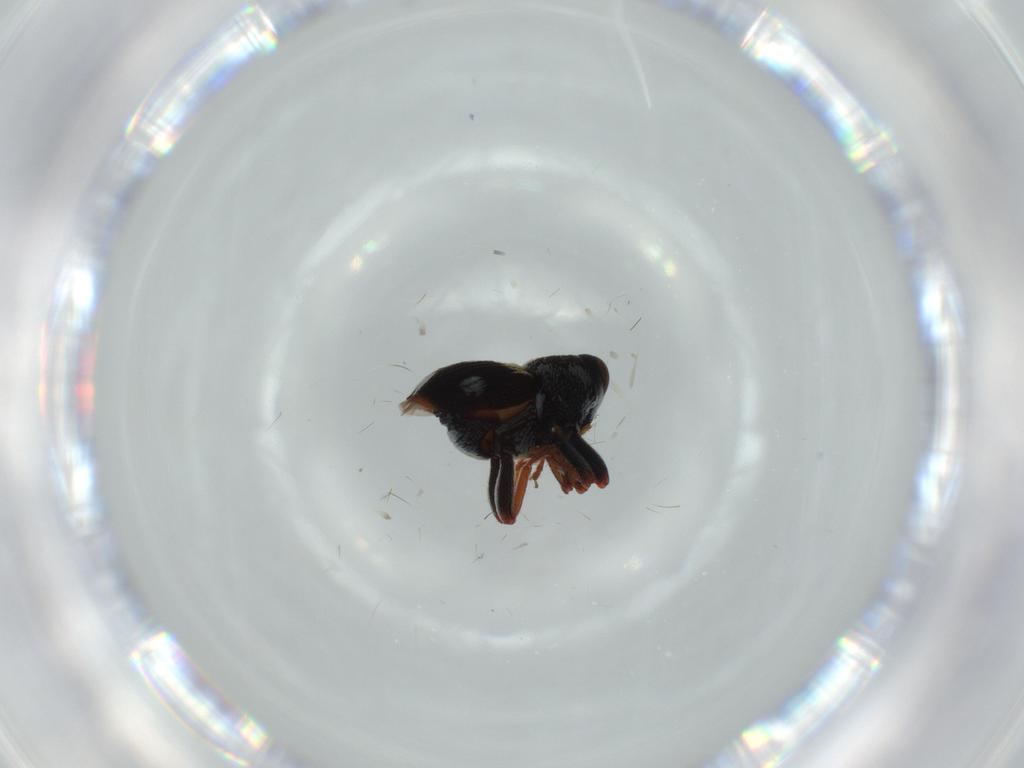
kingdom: Animalia
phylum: Arthropoda
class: Insecta
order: Coleoptera
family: Curculionidae
